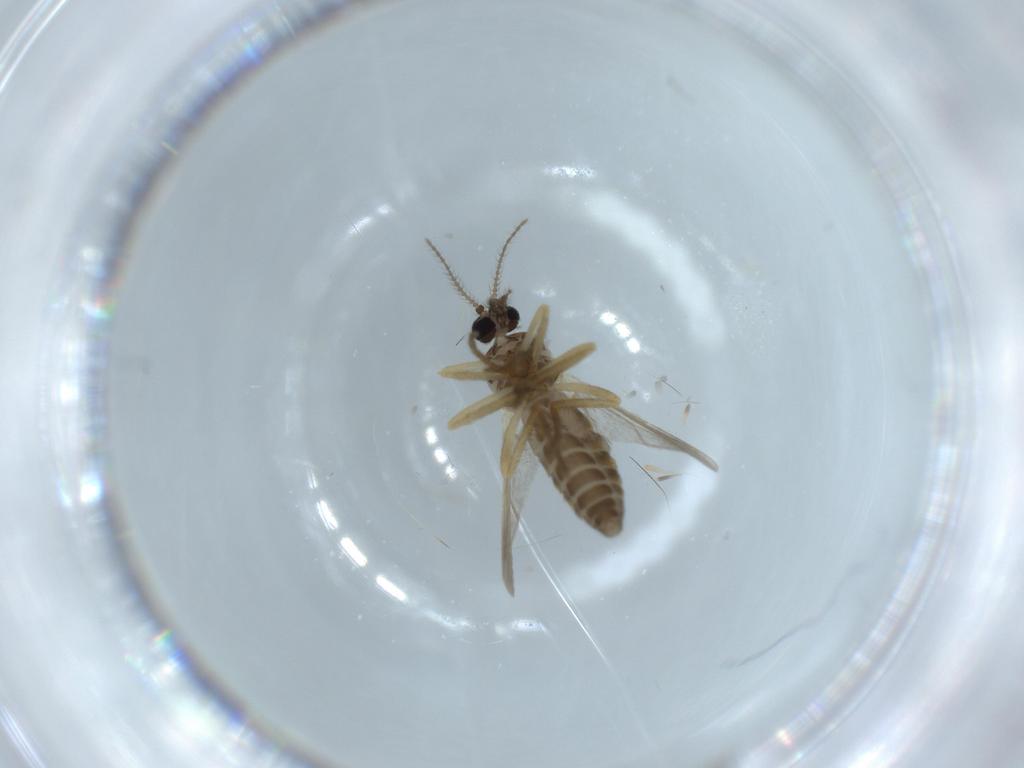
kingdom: Animalia
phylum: Arthropoda
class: Insecta
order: Diptera
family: Ceratopogonidae
